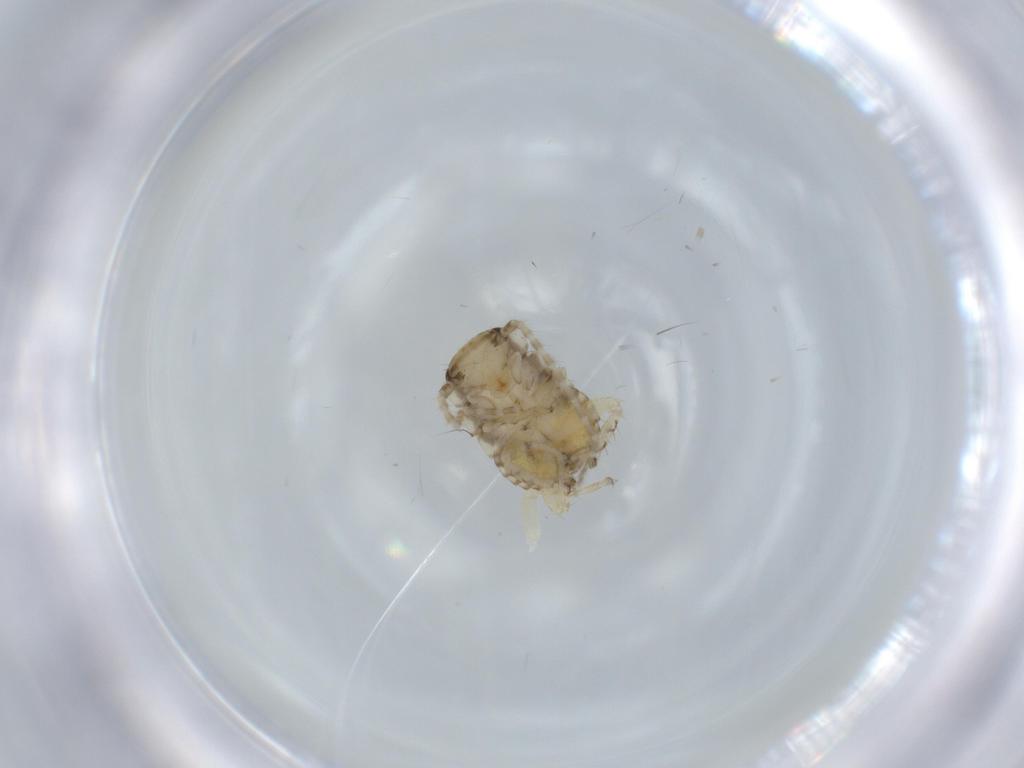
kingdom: Animalia
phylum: Arthropoda
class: Insecta
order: Blattodea
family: Ectobiidae
